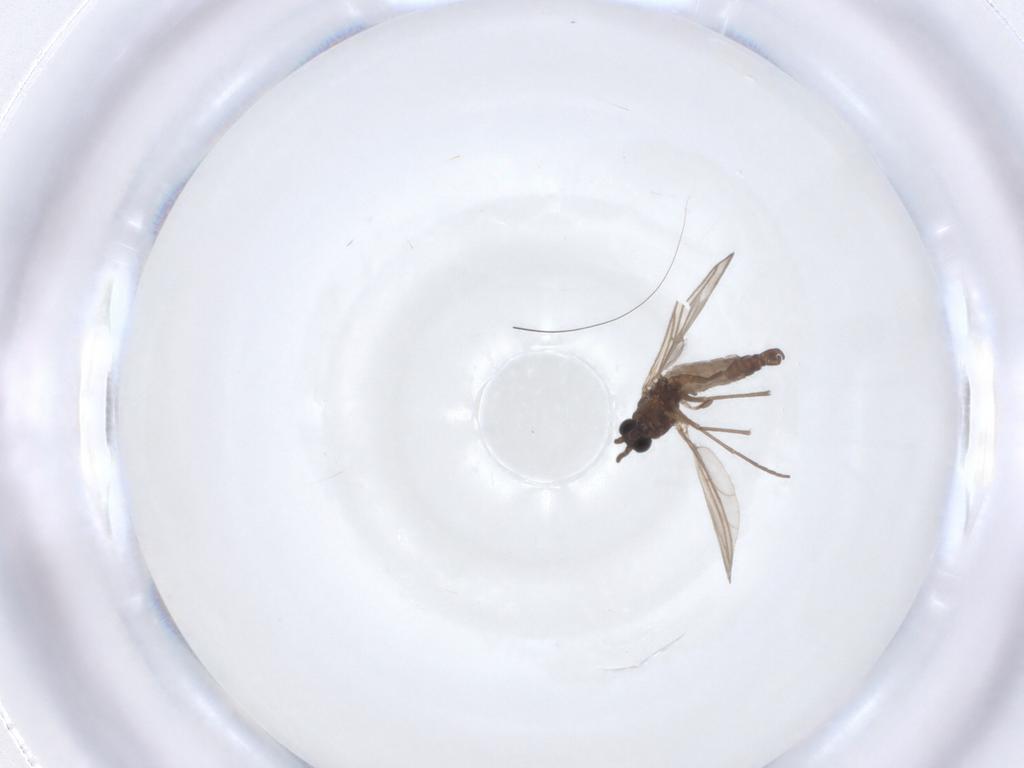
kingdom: Animalia
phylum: Arthropoda
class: Insecta
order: Diptera
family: Sciaridae
